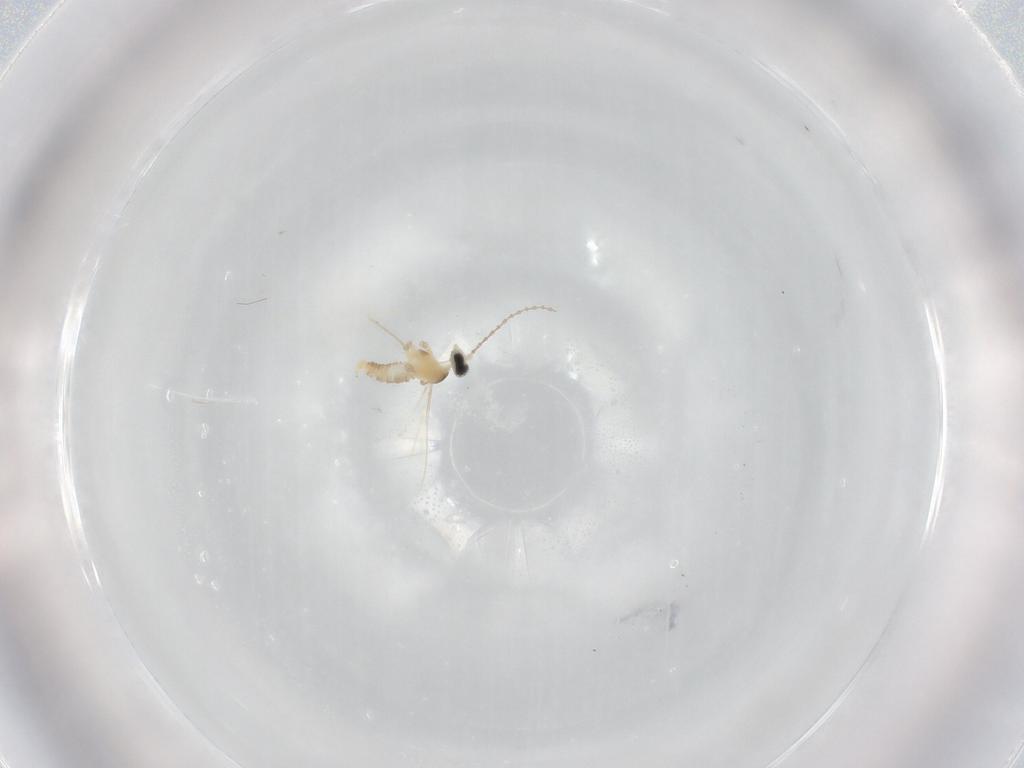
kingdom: Animalia
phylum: Arthropoda
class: Insecta
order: Diptera
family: Cecidomyiidae
